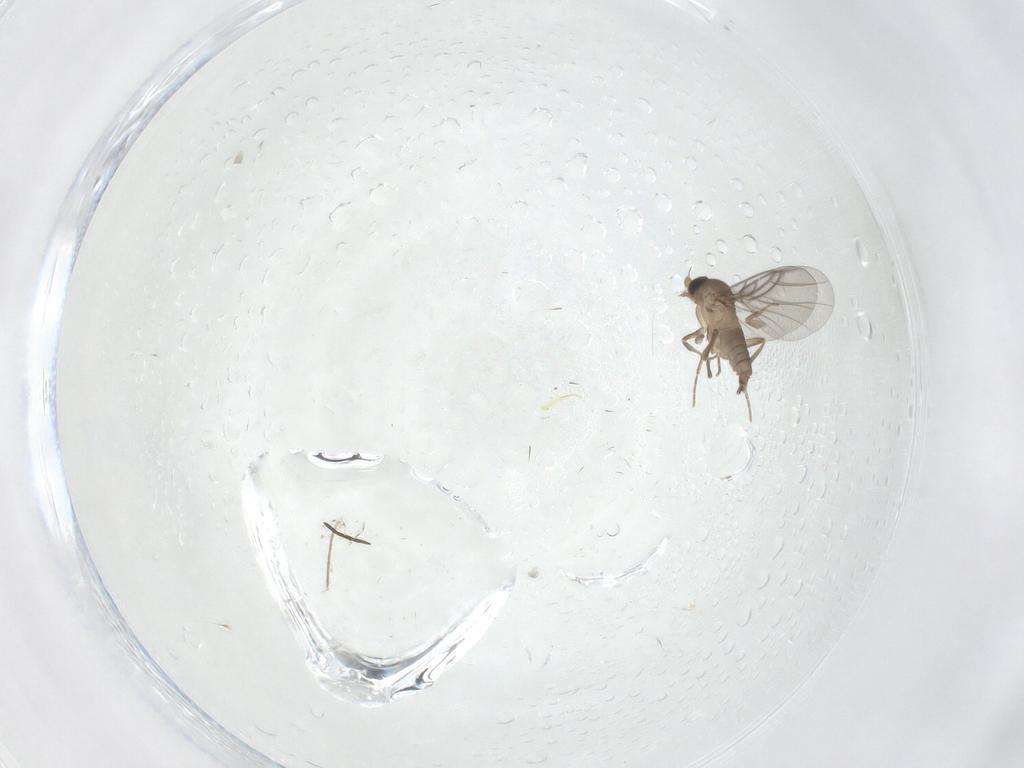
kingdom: Animalia
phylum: Arthropoda
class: Insecta
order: Diptera
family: Chironomidae
